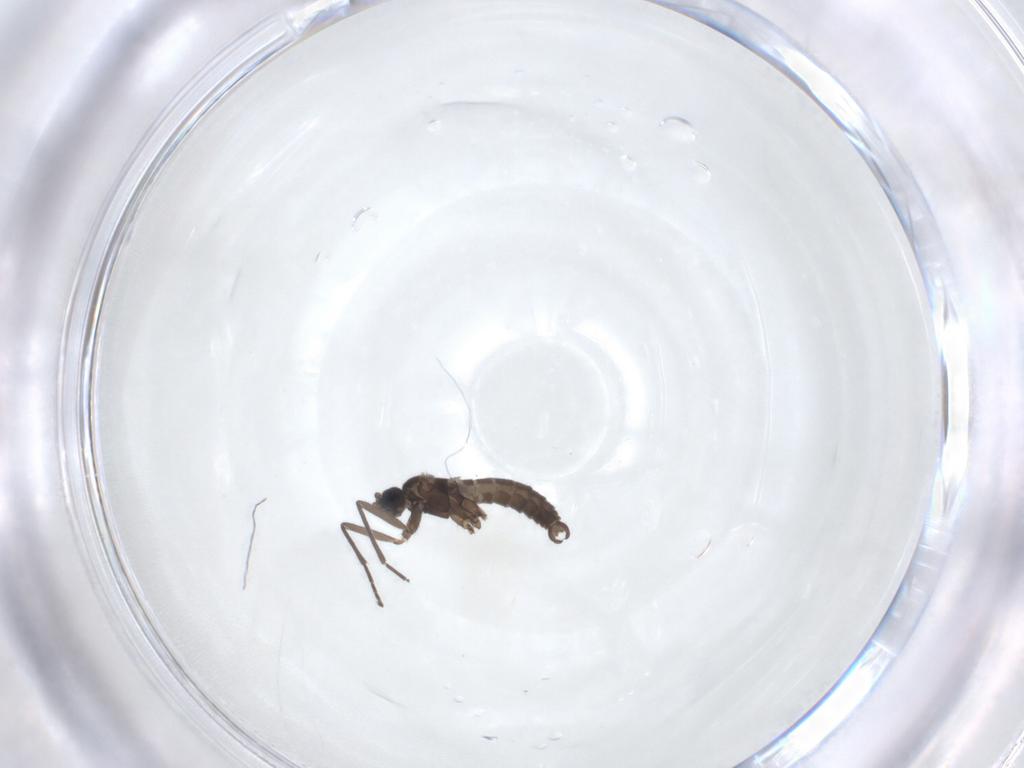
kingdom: Animalia
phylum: Arthropoda
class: Insecta
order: Diptera
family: Sciaridae
